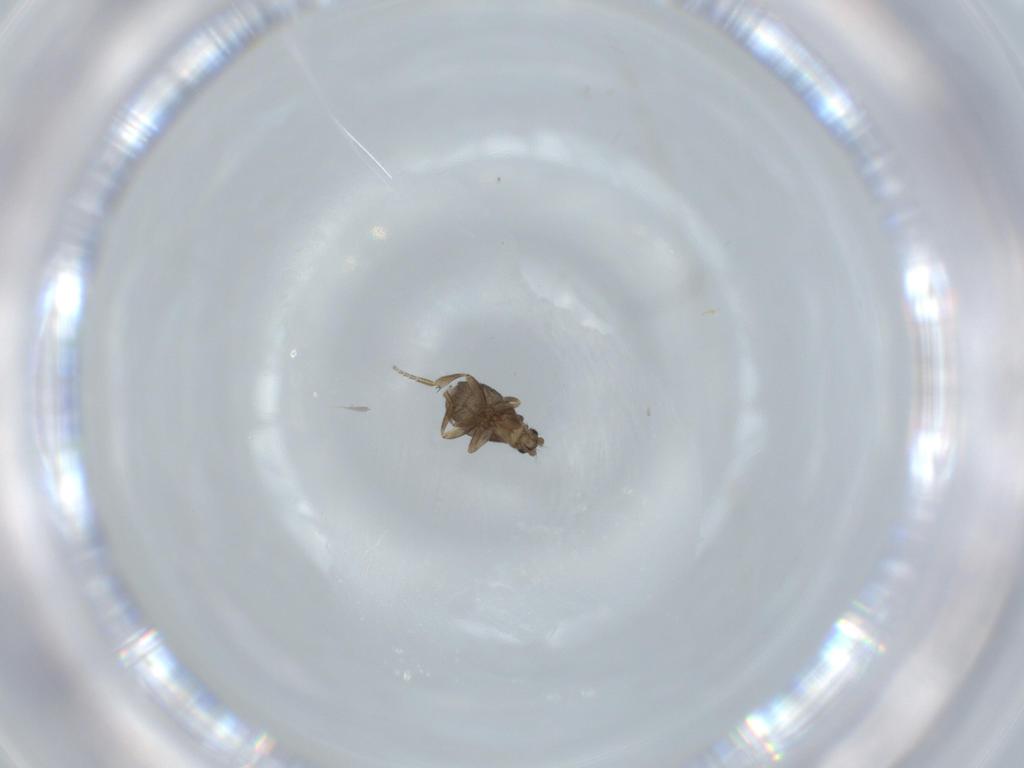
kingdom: Animalia
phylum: Arthropoda
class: Insecta
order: Diptera
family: Phoridae
